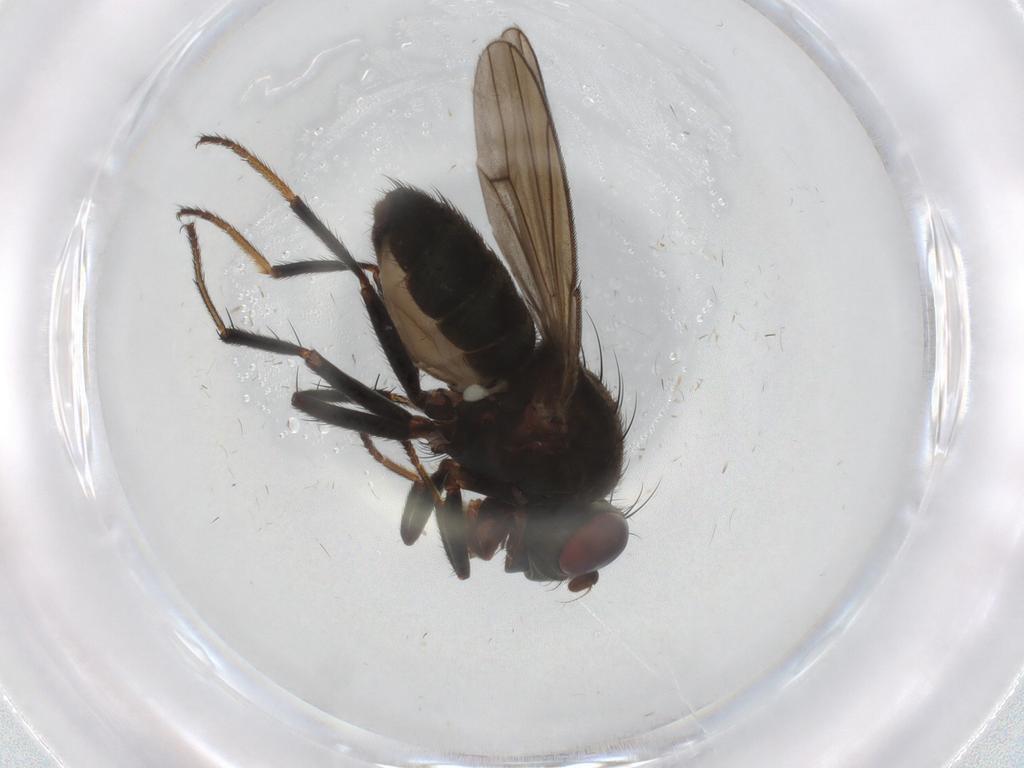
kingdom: Animalia
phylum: Arthropoda
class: Insecta
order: Diptera
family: Ephydridae
